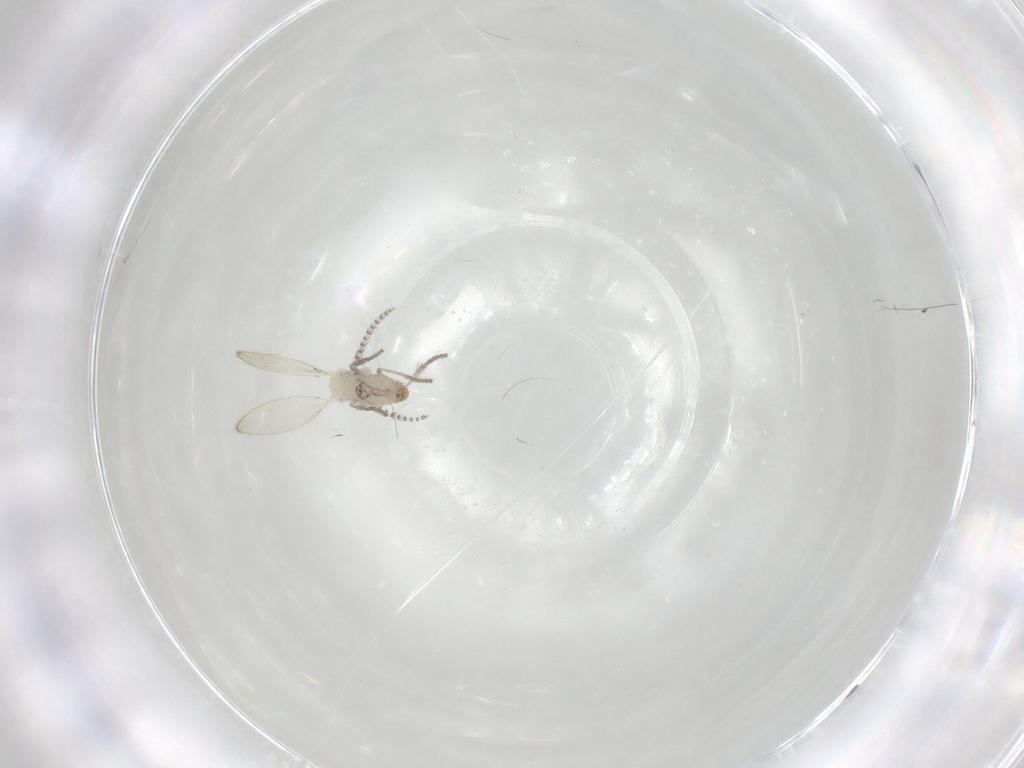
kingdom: Animalia
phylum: Arthropoda
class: Insecta
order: Diptera
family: Psychodidae
